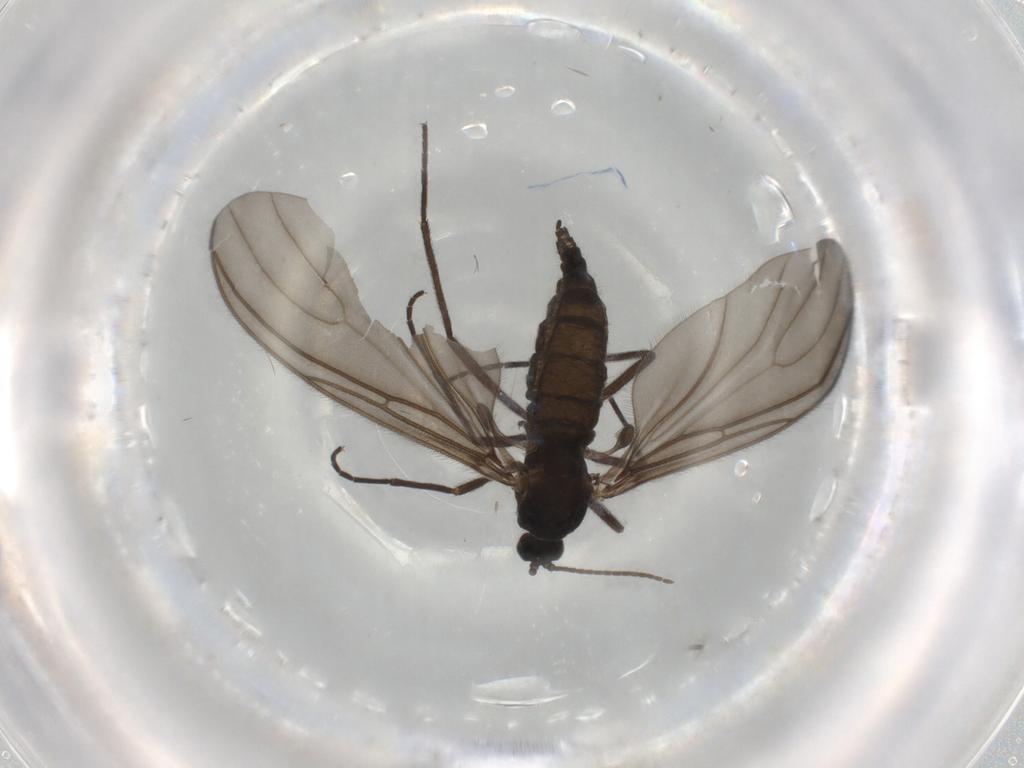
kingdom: Animalia
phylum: Arthropoda
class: Insecta
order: Diptera
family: Sciaridae
